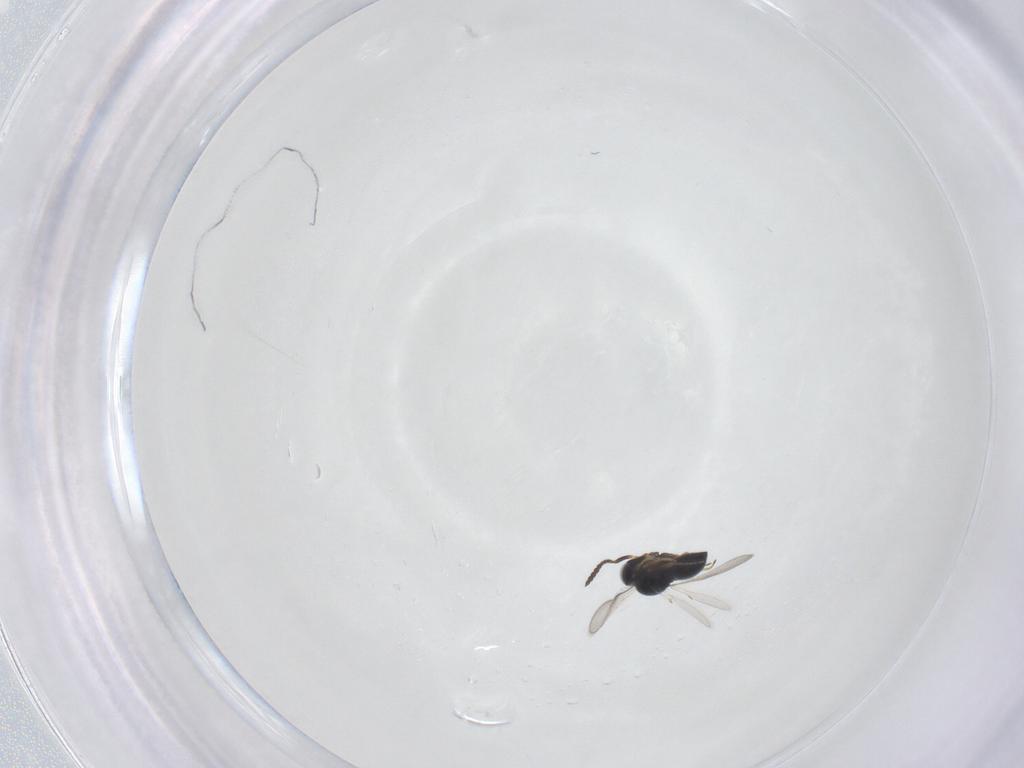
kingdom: Animalia
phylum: Arthropoda
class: Insecta
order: Hymenoptera
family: Scelionidae
